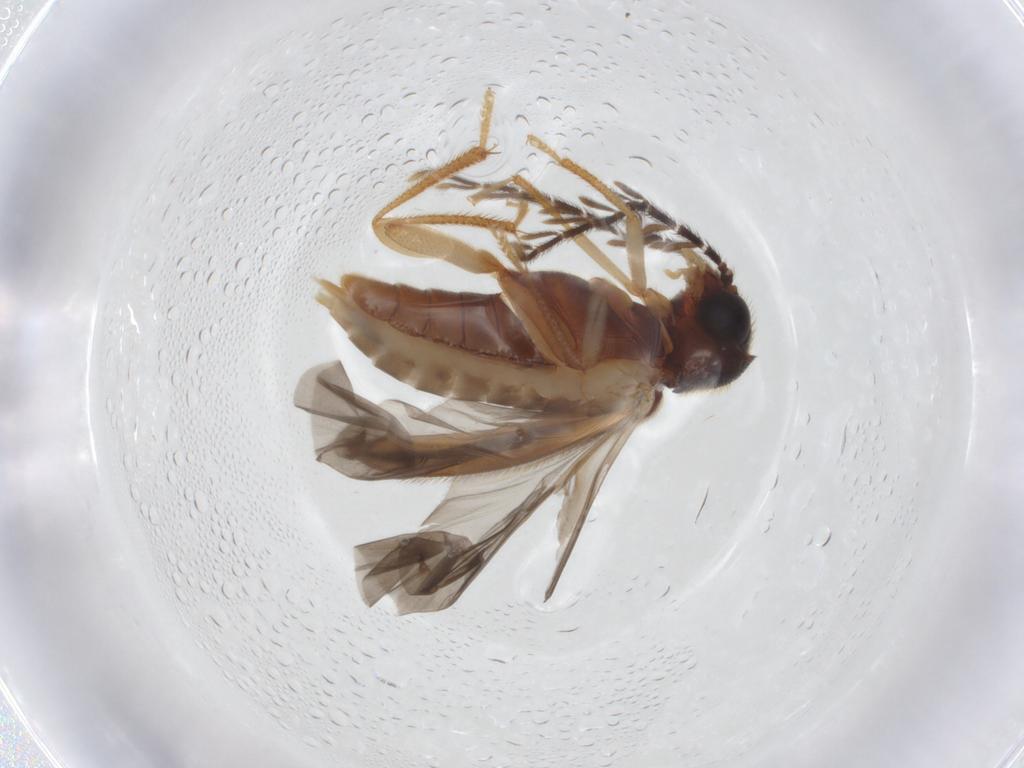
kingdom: Animalia
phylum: Arthropoda
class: Insecta
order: Coleoptera
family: Ptilodactylidae
